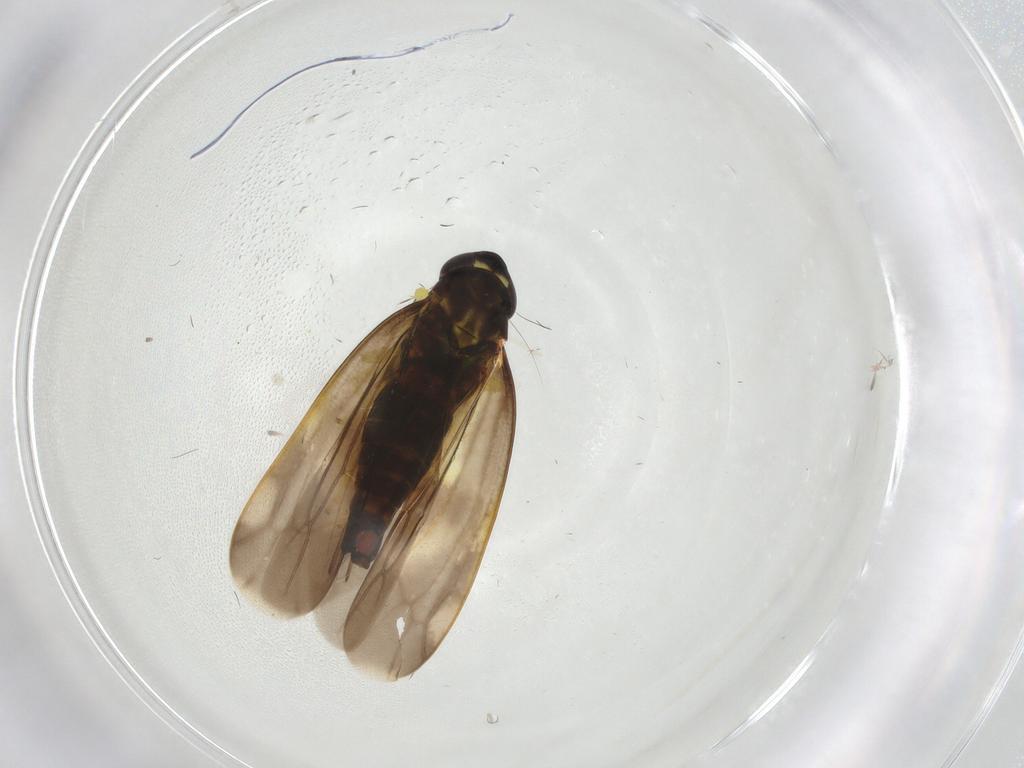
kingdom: Animalia
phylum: Arthropoda
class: Insecta
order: Hemiptera
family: Cicadellidae
